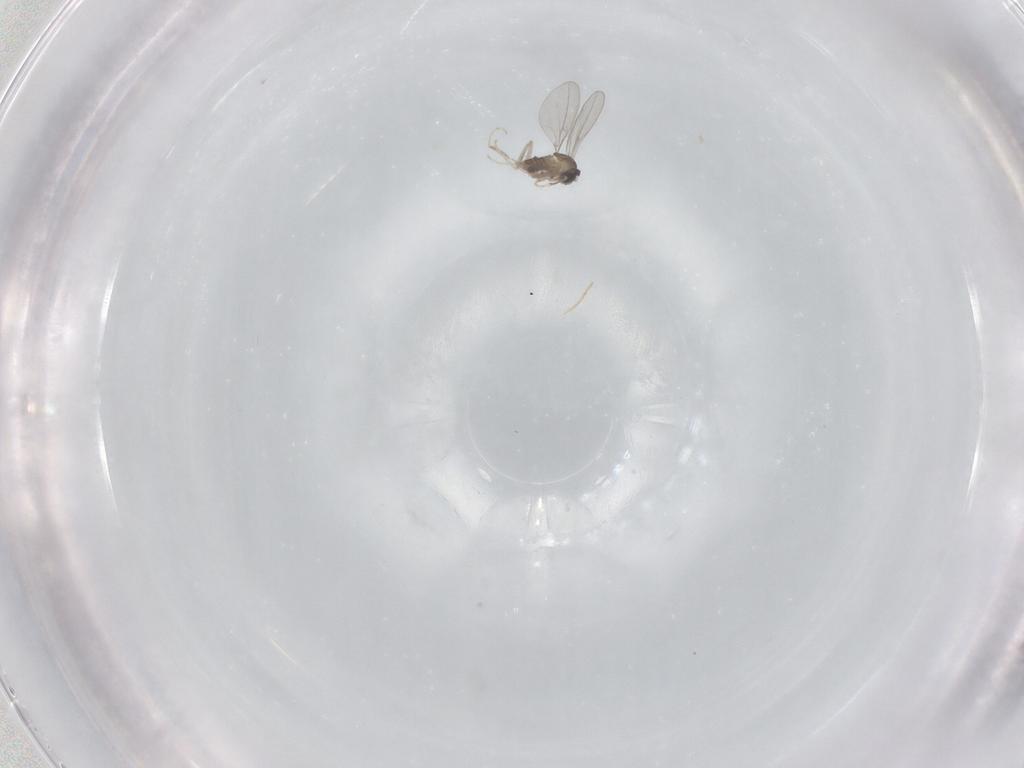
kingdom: Animalia
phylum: Arthropoda
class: Insecta
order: Diptera
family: Cecidomyiidae
